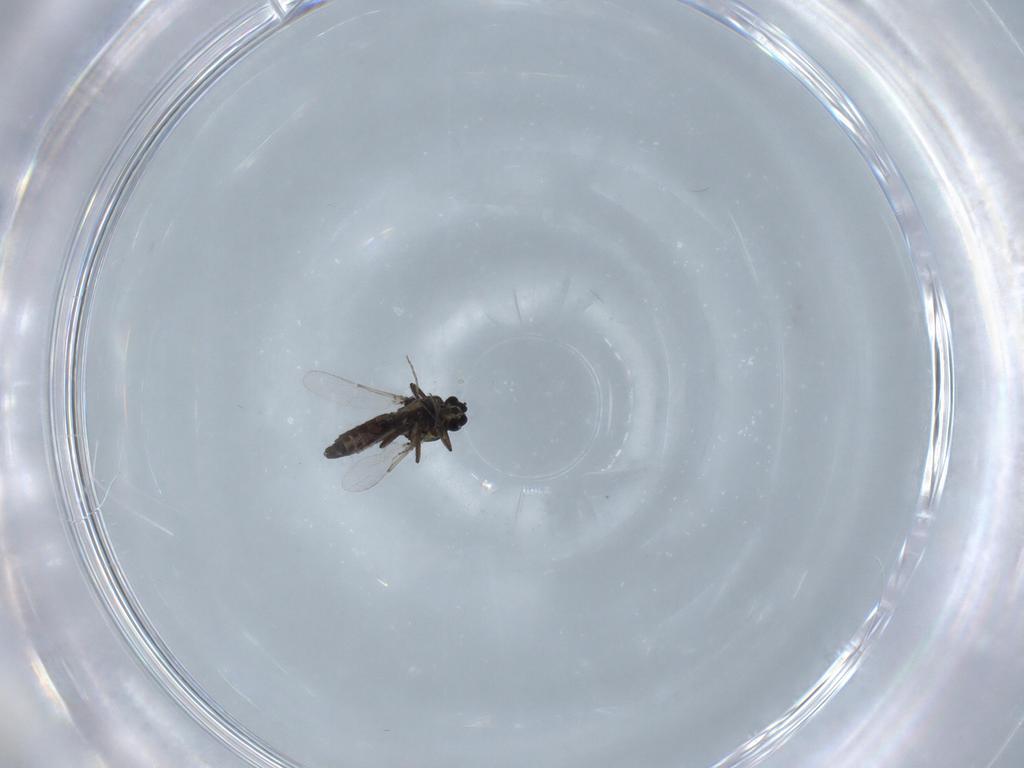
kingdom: Animalia
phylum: Arthropoda
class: Insecta
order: Diptera
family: Ceratopogonidae
